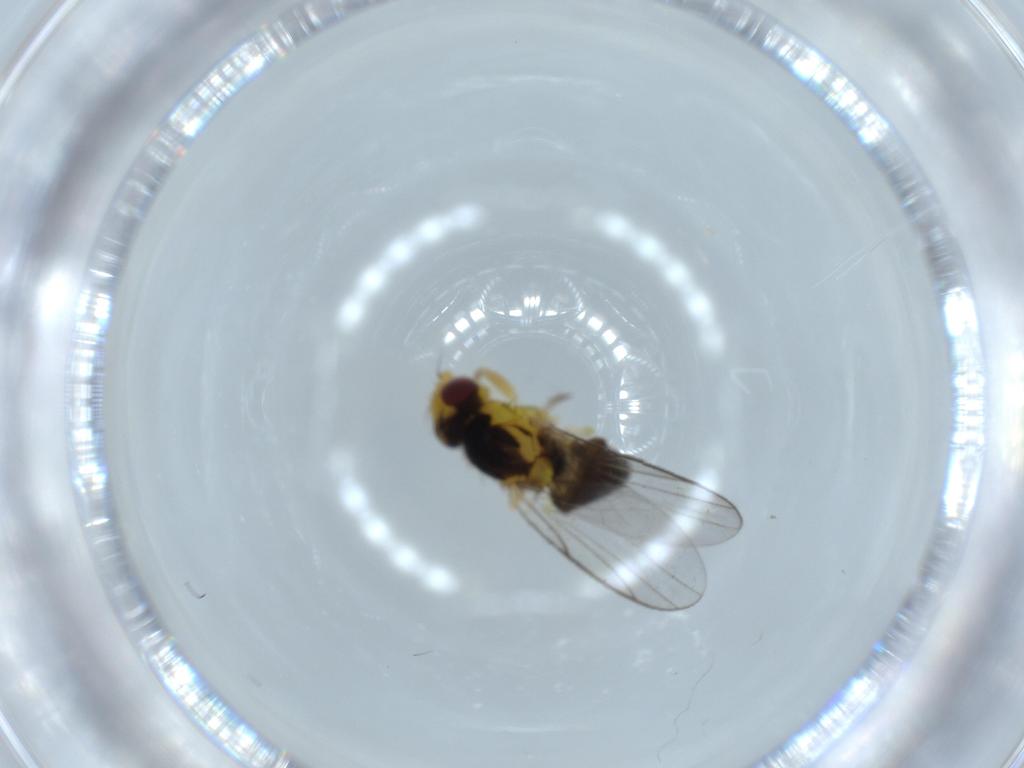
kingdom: Animalia
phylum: Arthropoda
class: Insecta
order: Diptera
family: Chloropidae
